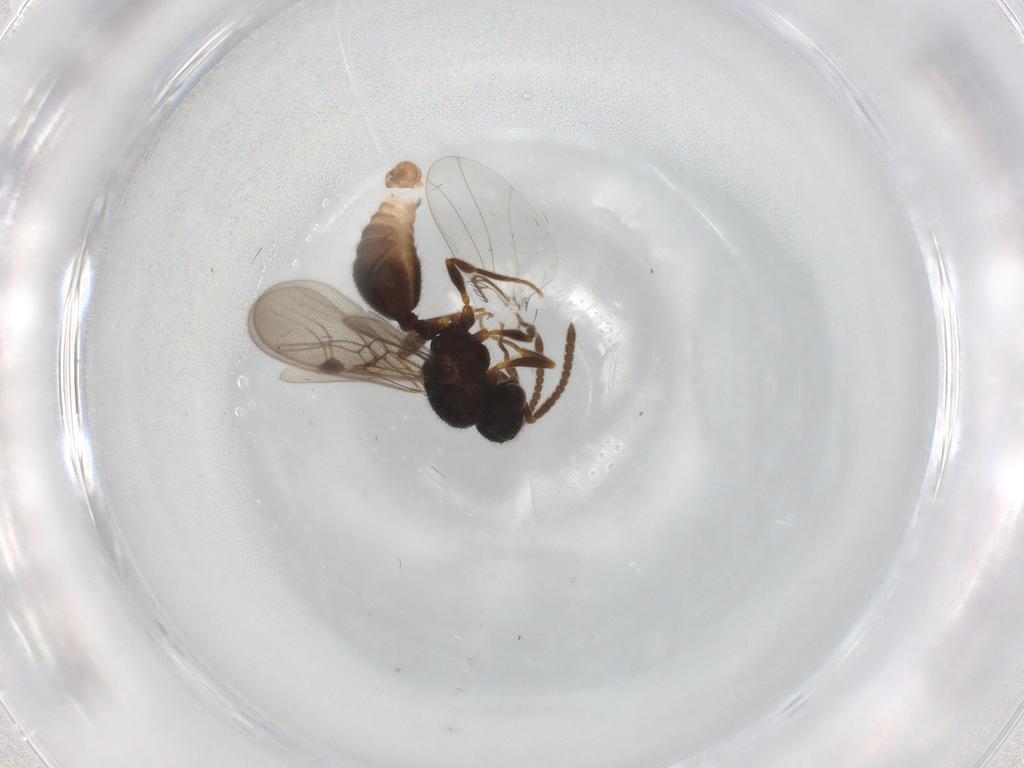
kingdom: Animalia
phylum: Arthropoda
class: Insecta
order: Hymenoptera
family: Formicidae
